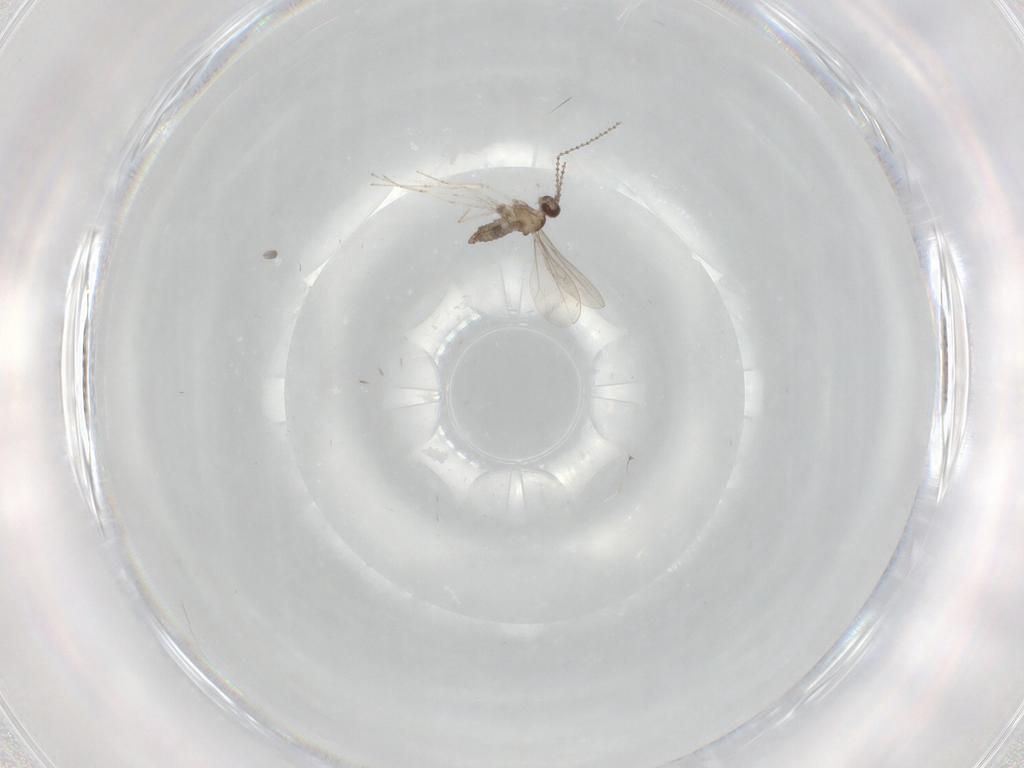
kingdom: Animalia
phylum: Arthropoda
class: Insecta
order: Diptera
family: Cecidomyiidae
